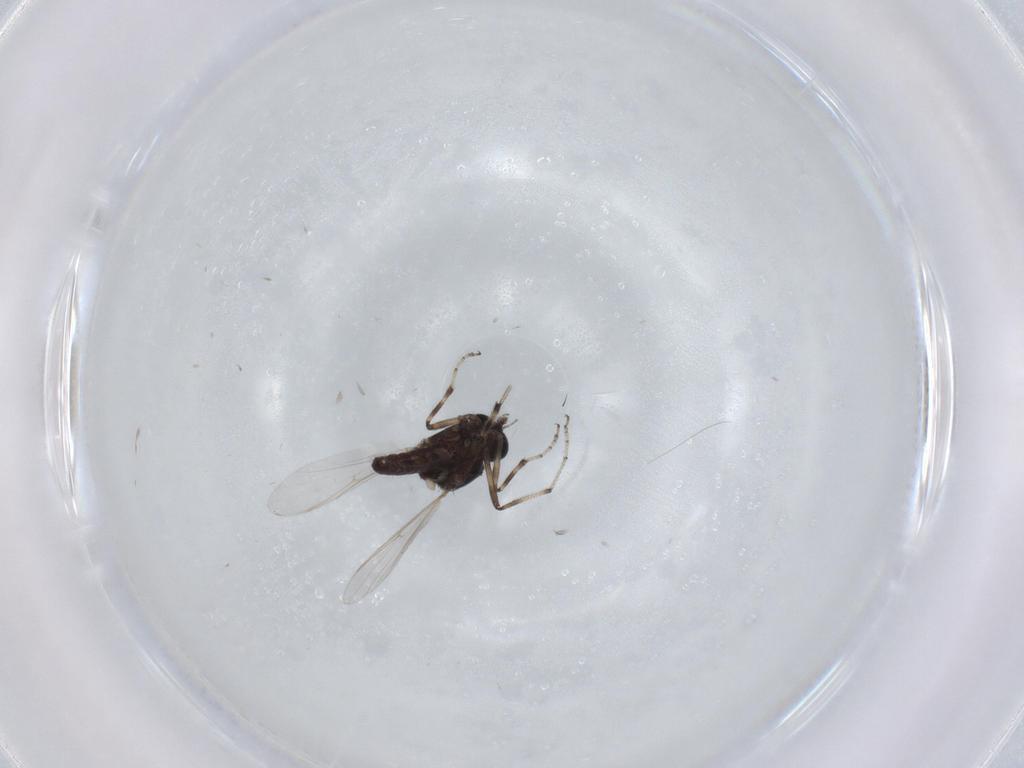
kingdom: Animalia
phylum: Arthropoda
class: Insecta
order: Diptera
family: Ceratopogonidae
